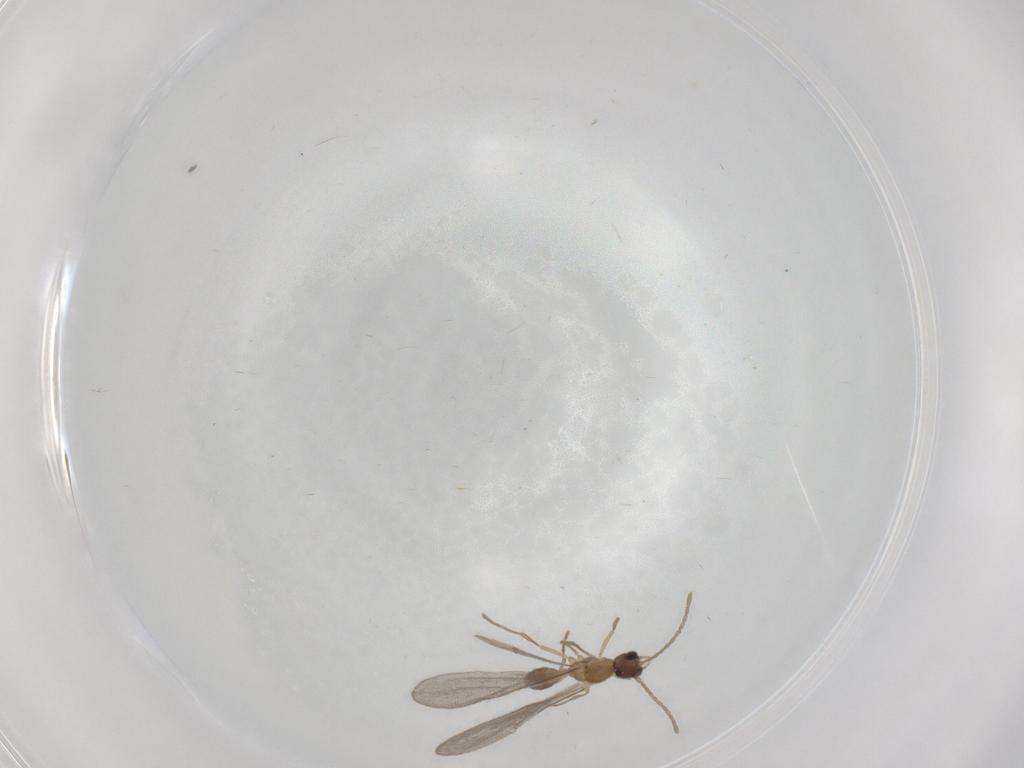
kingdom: Animalia
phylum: Arthropoda
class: Insecta
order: Hymenoptera
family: Formicidae
